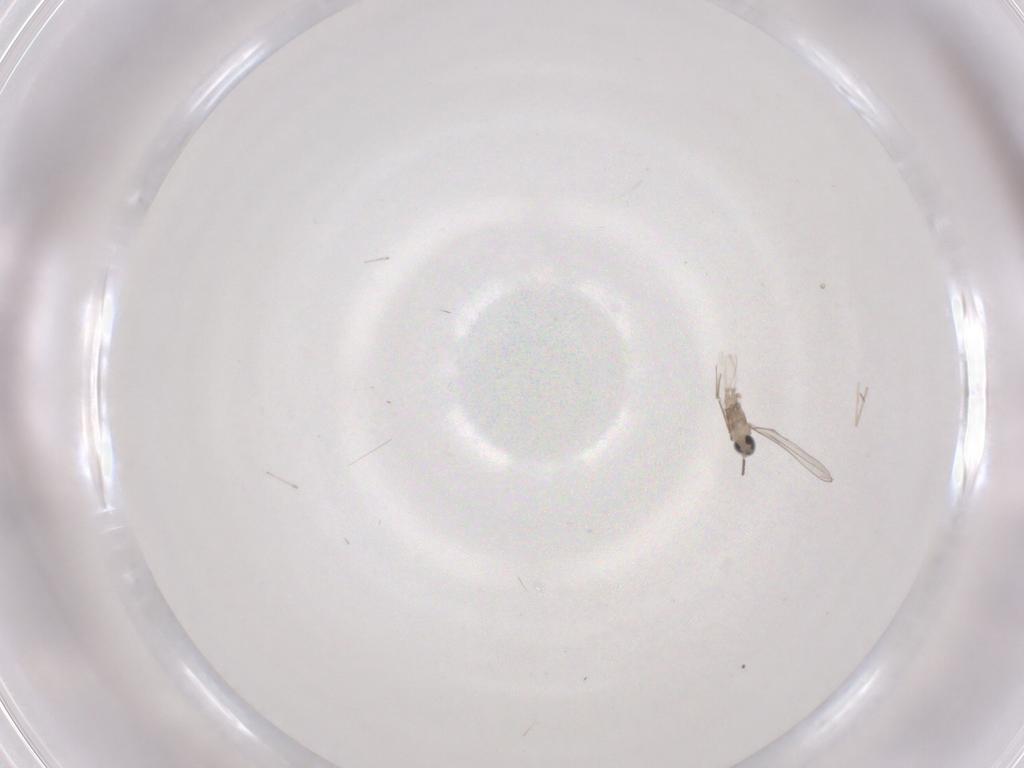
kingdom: Animalia
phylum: Arthropoda
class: Insecta
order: Diptera
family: Cecidomyiidae
